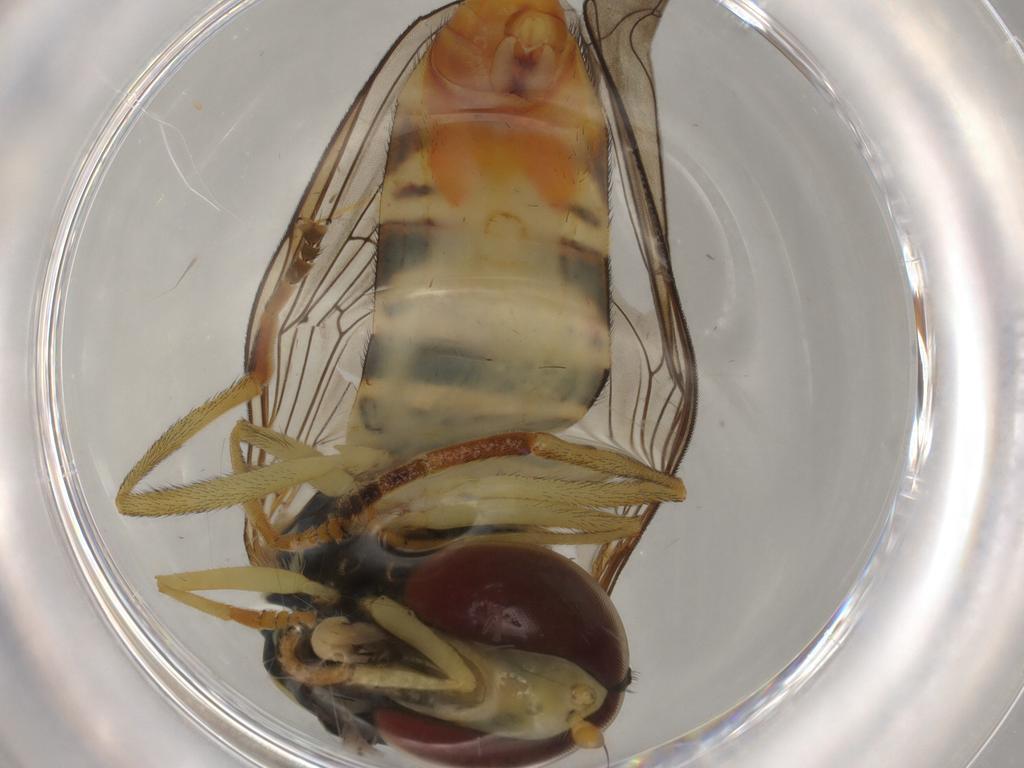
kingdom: Animalia
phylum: Arthropoda
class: Insecta
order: Diptera
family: Syrphidae
